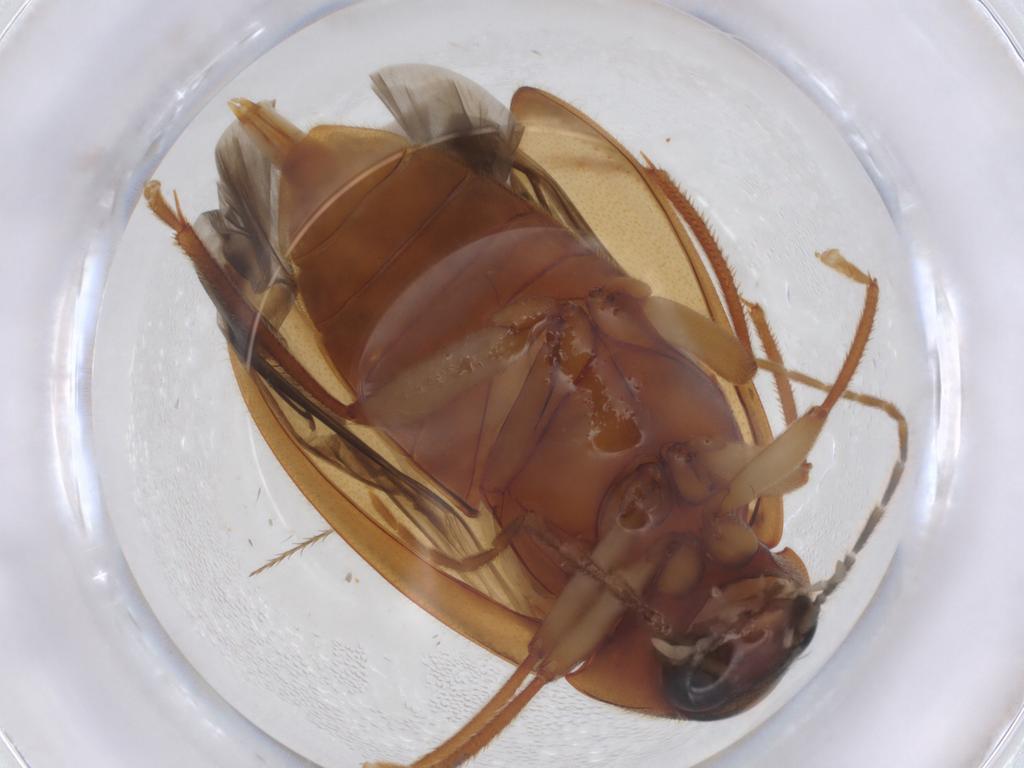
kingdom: Animalia
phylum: Arthropoda
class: Insecta
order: Coleoptera
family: Ptilodactylidae
